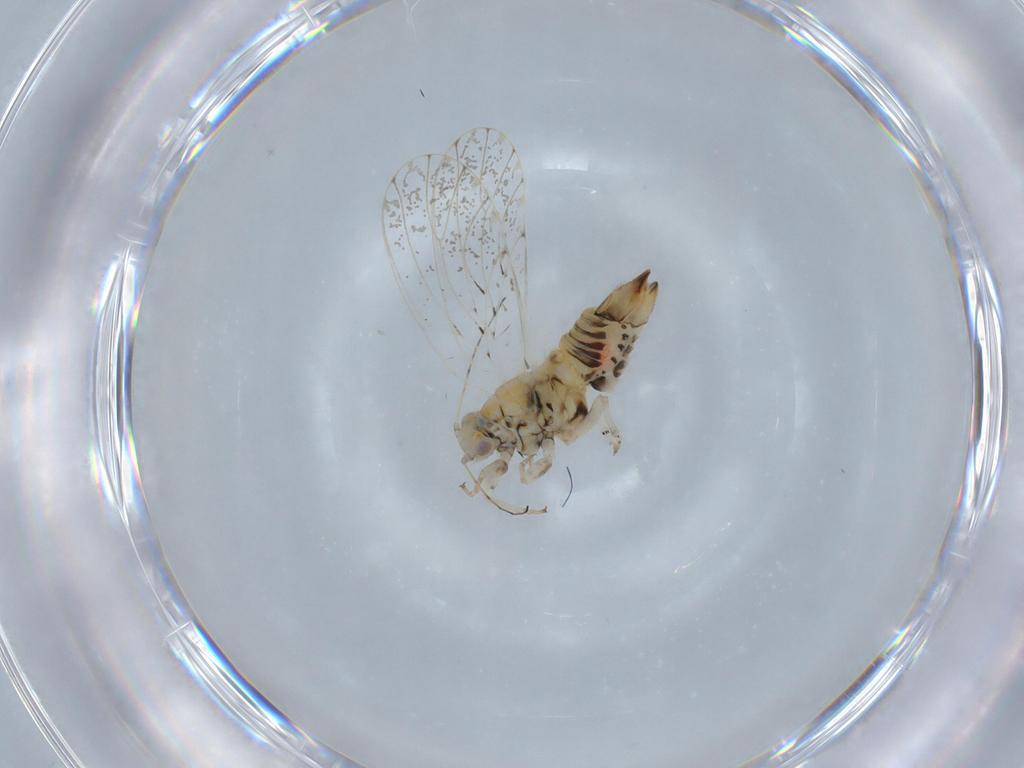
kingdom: Animalia
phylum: Arthropoda
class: Insecta
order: Hemiptera
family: Psyllidae
